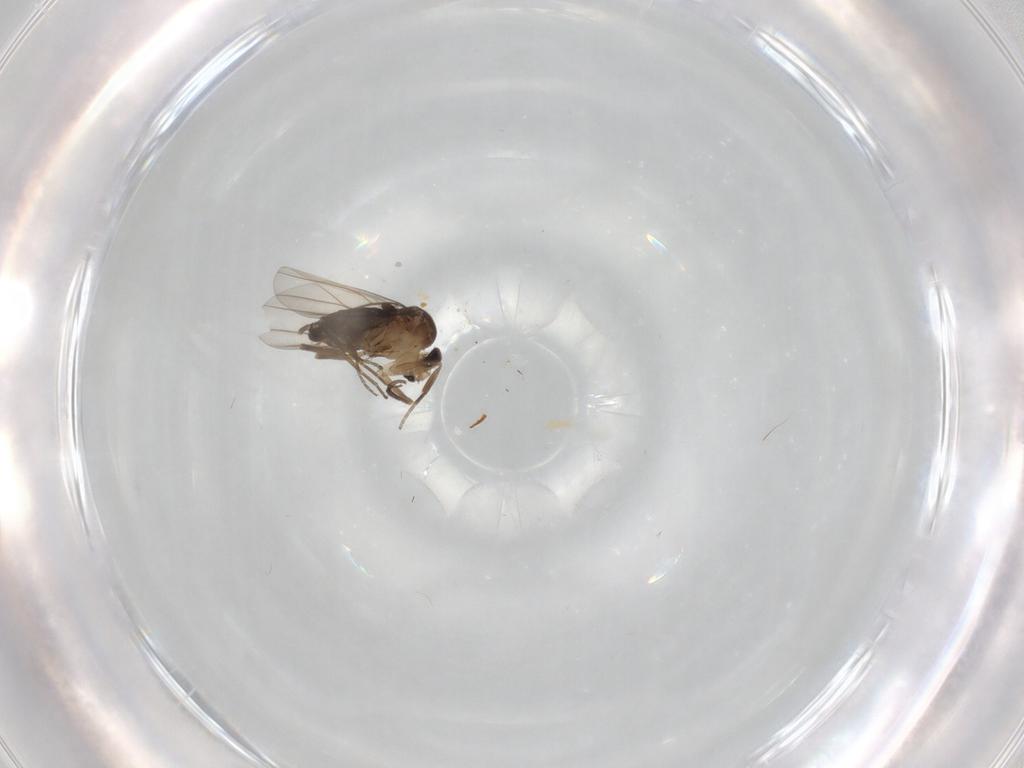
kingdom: Animalia
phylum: Arthropoda
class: Insecta
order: Diptera
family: Phoridae
